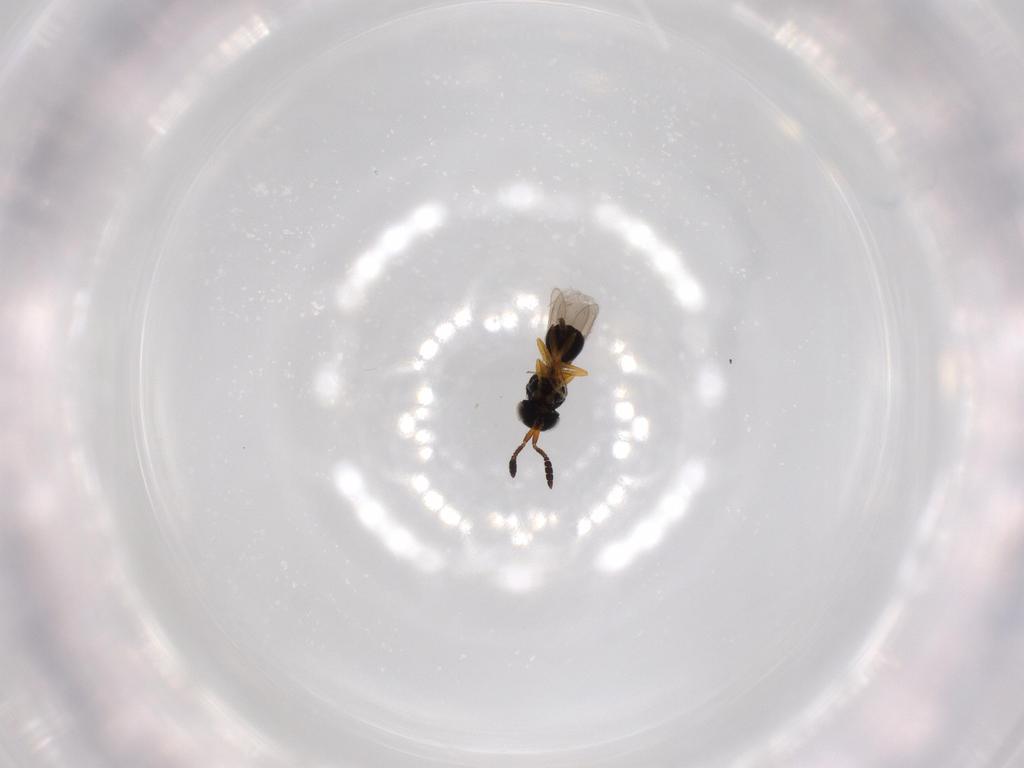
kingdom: Animalia
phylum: Arthropoda
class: Insecta
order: Hymenoptera
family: Scelionidae
